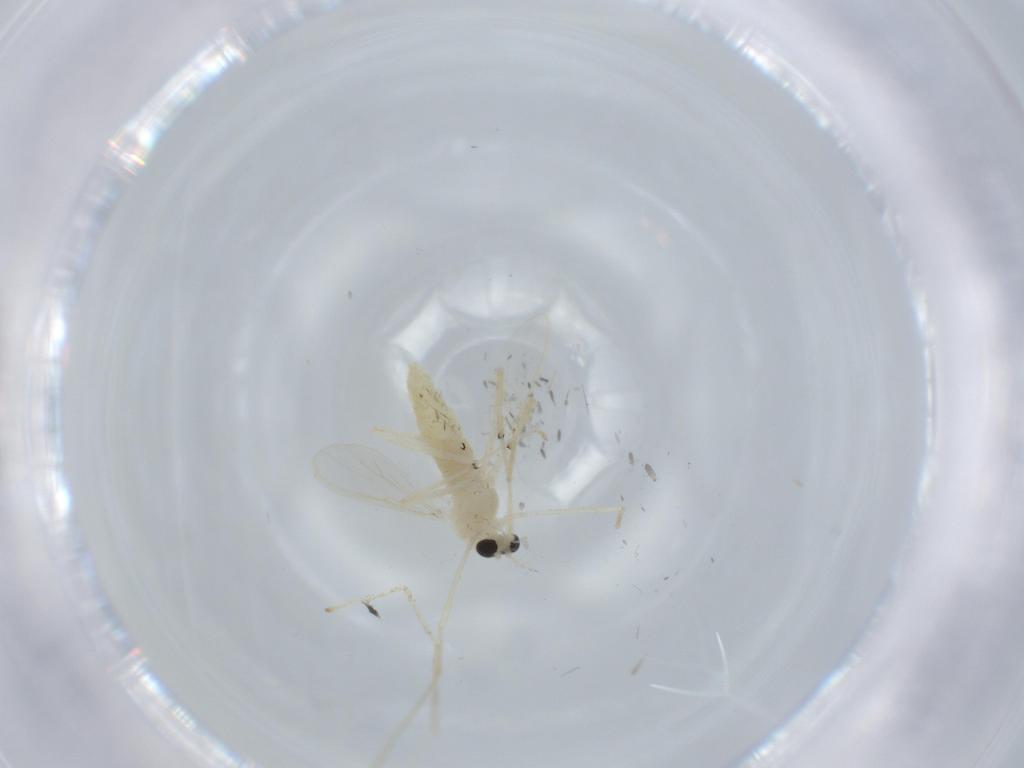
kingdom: Animalia
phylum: Arthropoda
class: Insecta
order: Diptera
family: Chironomidae
